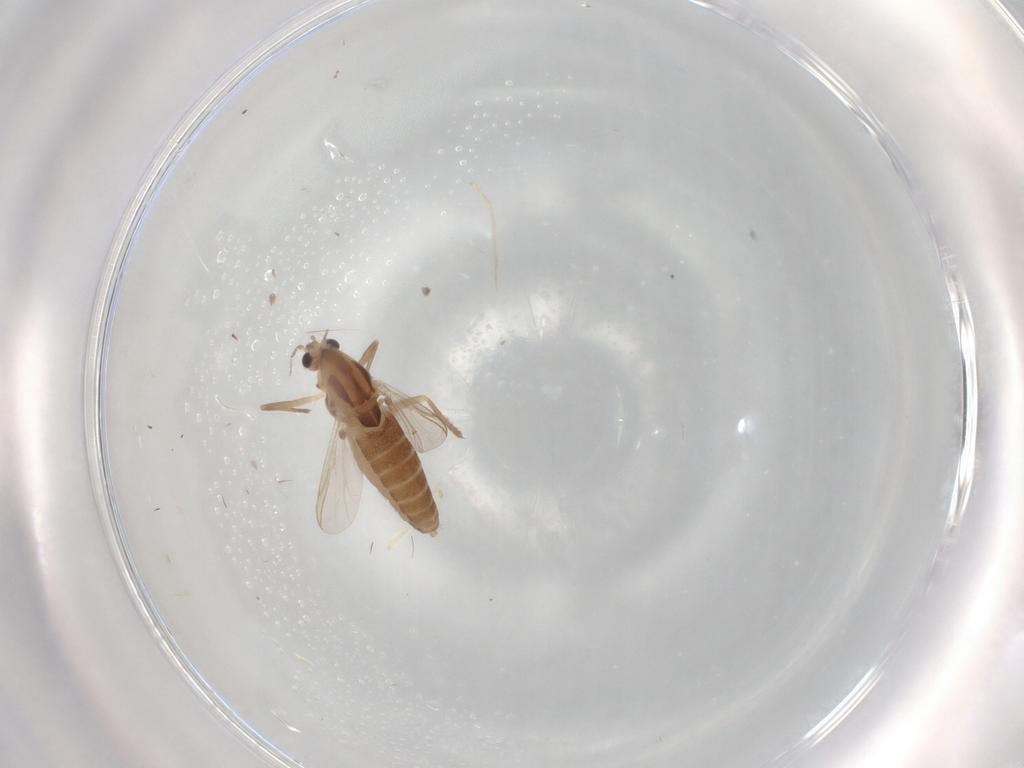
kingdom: Animalia
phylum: Arthropoda
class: Insecta
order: Diptera
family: Chironomidae
